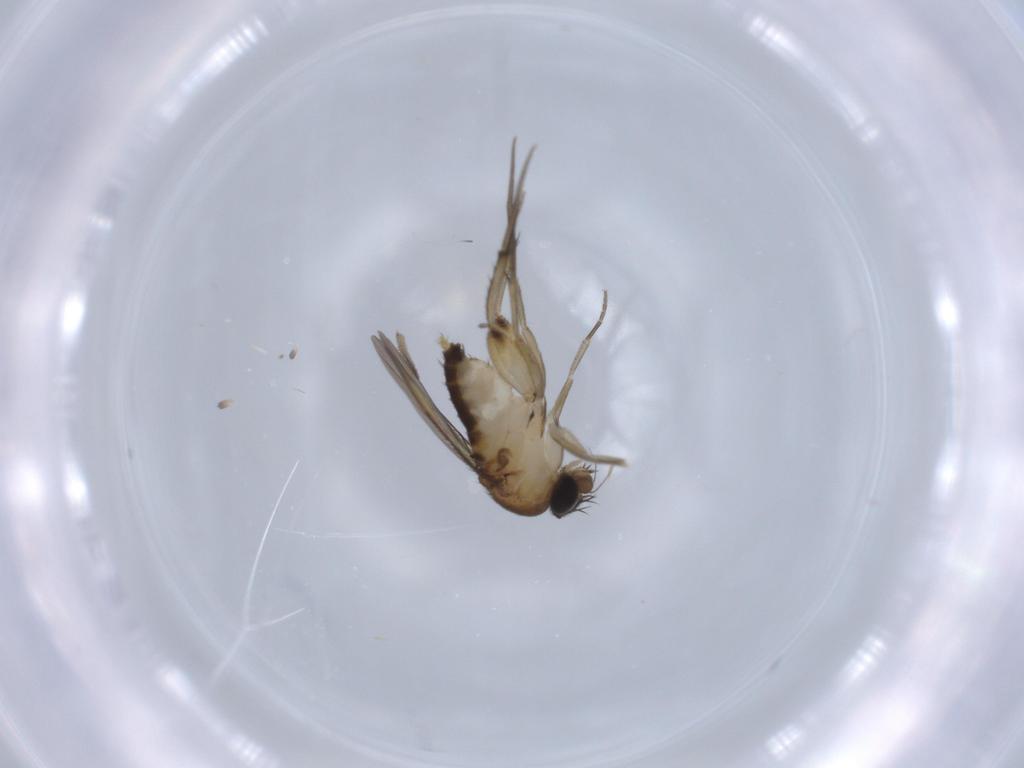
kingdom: Animalia
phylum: Arthropoda
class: Insecta
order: Diptera
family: Phoridae
